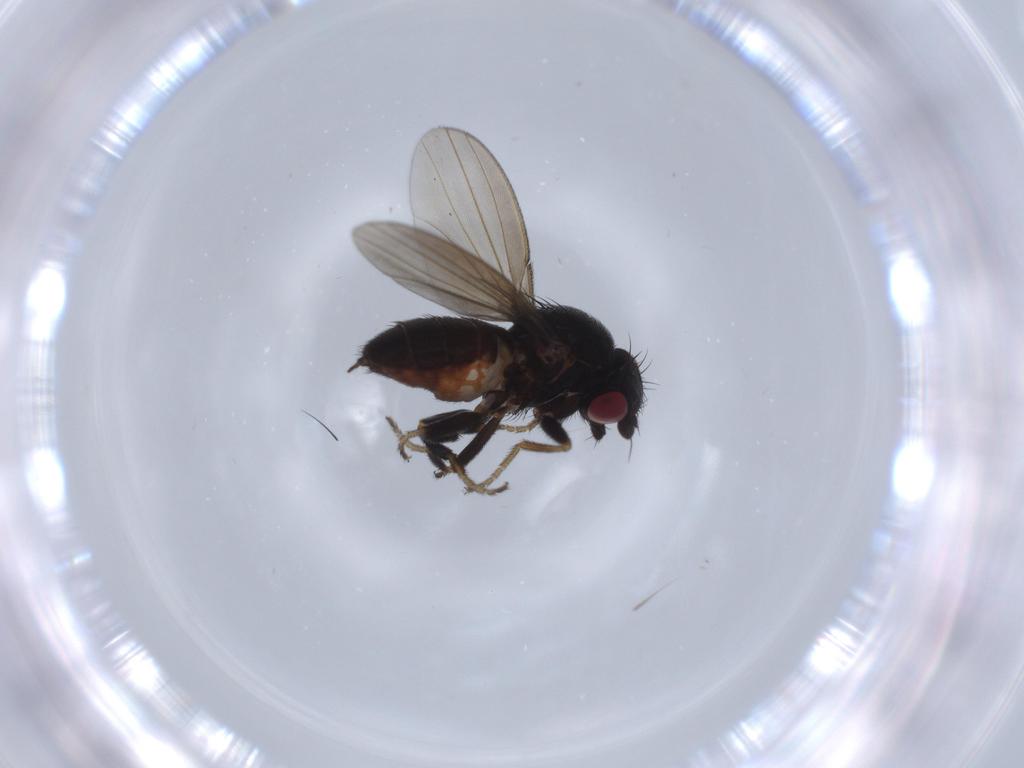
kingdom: Animalia
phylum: Arthropoda
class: Insecta
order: Diptera
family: Milichiidae
